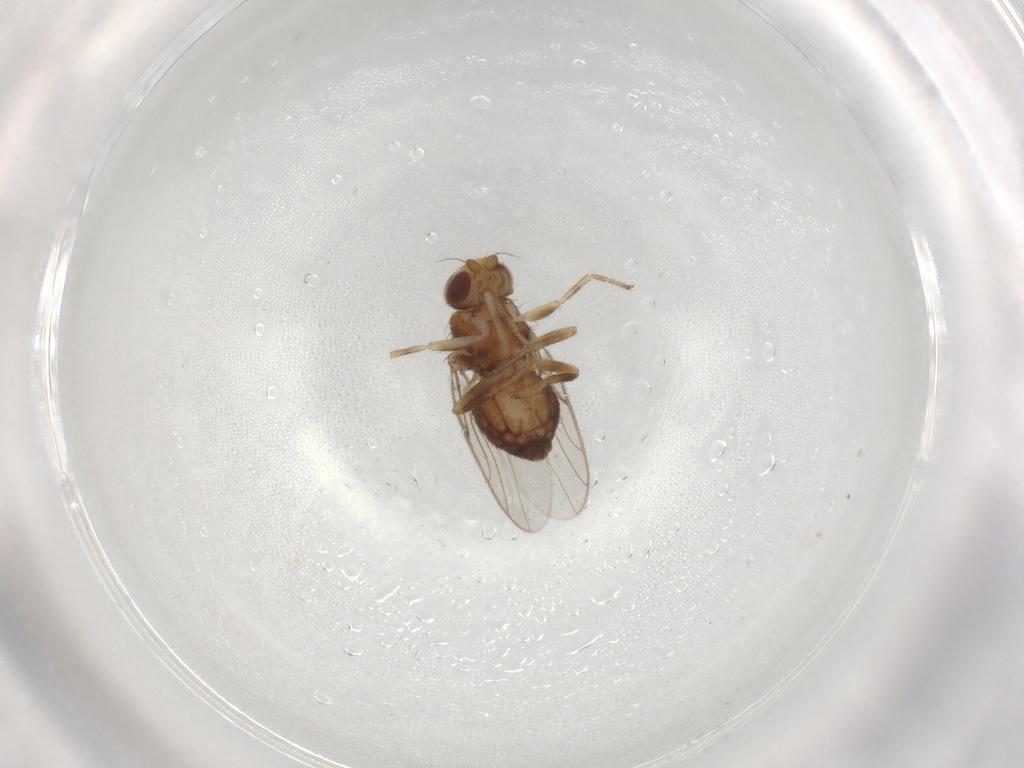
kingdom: Animalia
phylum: Arthropoda
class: Insecta
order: Diptera
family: Chloropidae
